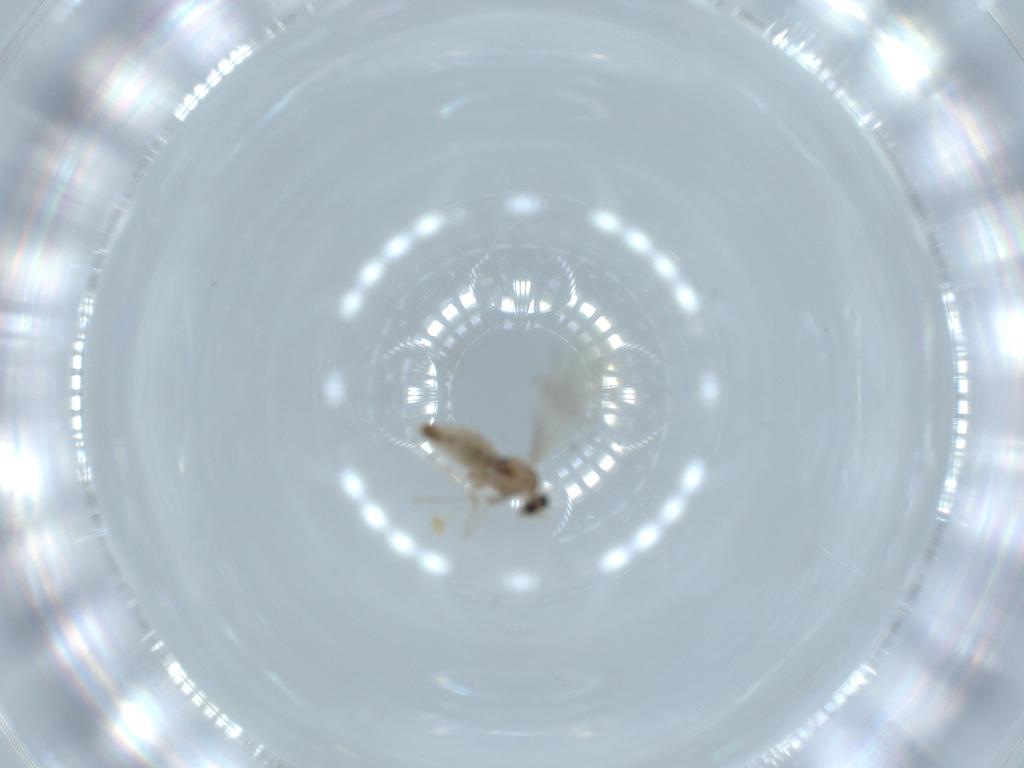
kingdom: Animalia
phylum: Arthropoda
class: Insecta
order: Diptera
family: Cecidomyiidae
